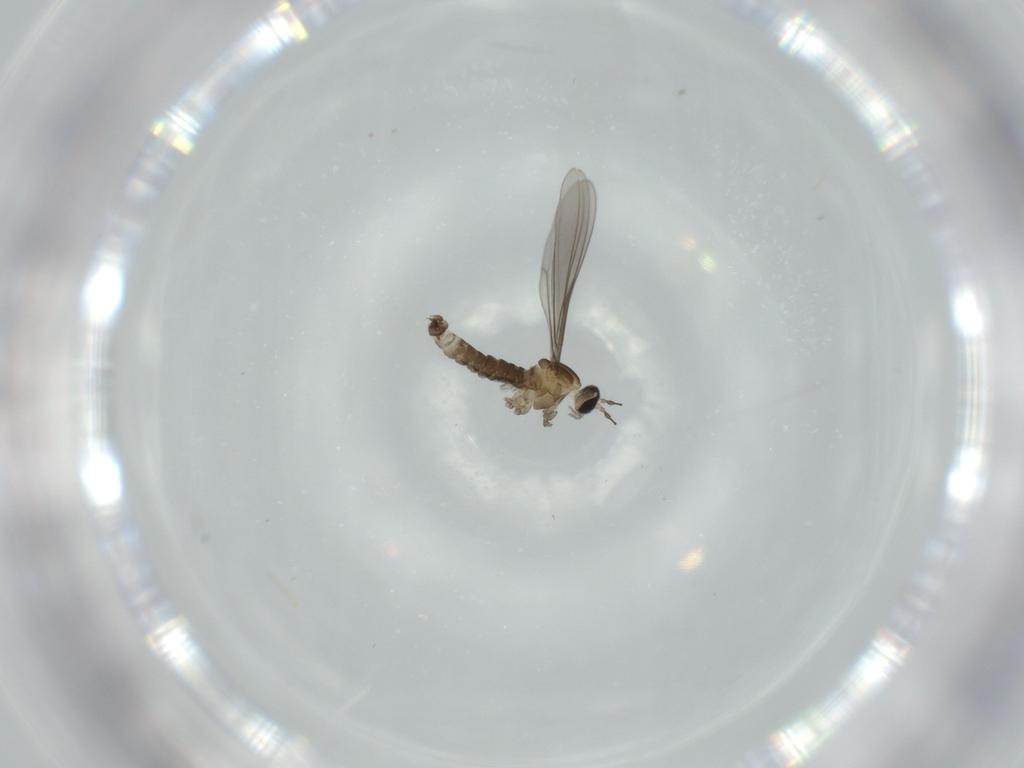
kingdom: Animalia
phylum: Arthropoda
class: Insecta
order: Diptera
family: Cecidomyiidae
